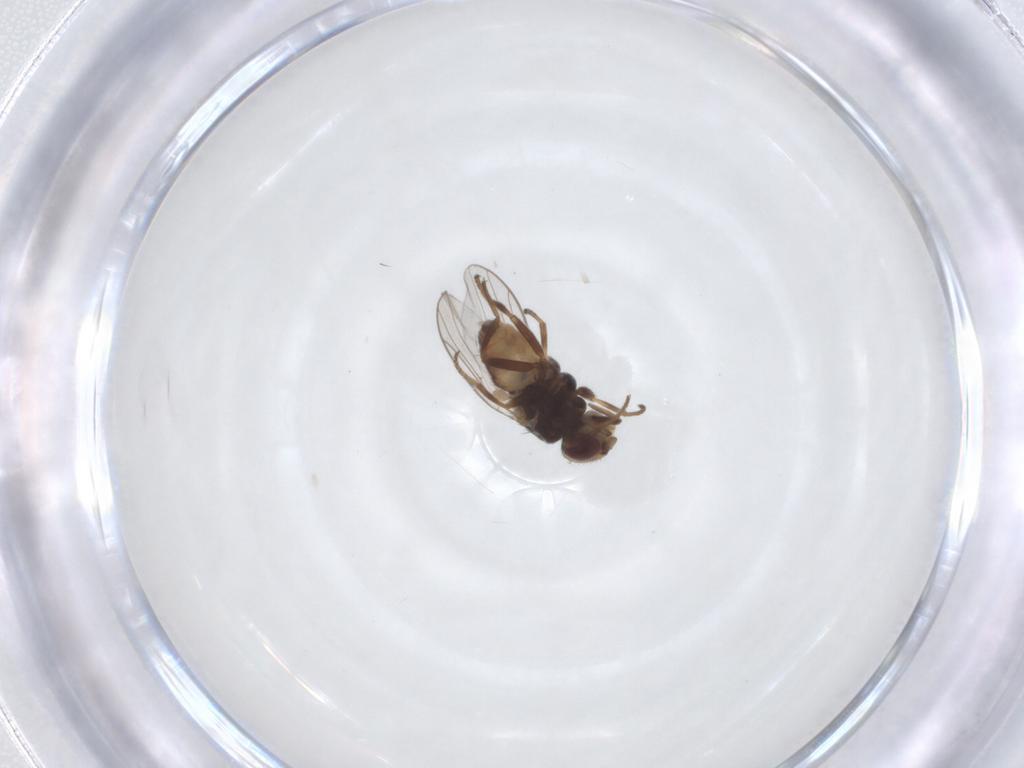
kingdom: Animalia
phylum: Arthropoda
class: Insecta
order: Diptera
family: Chloropidae
